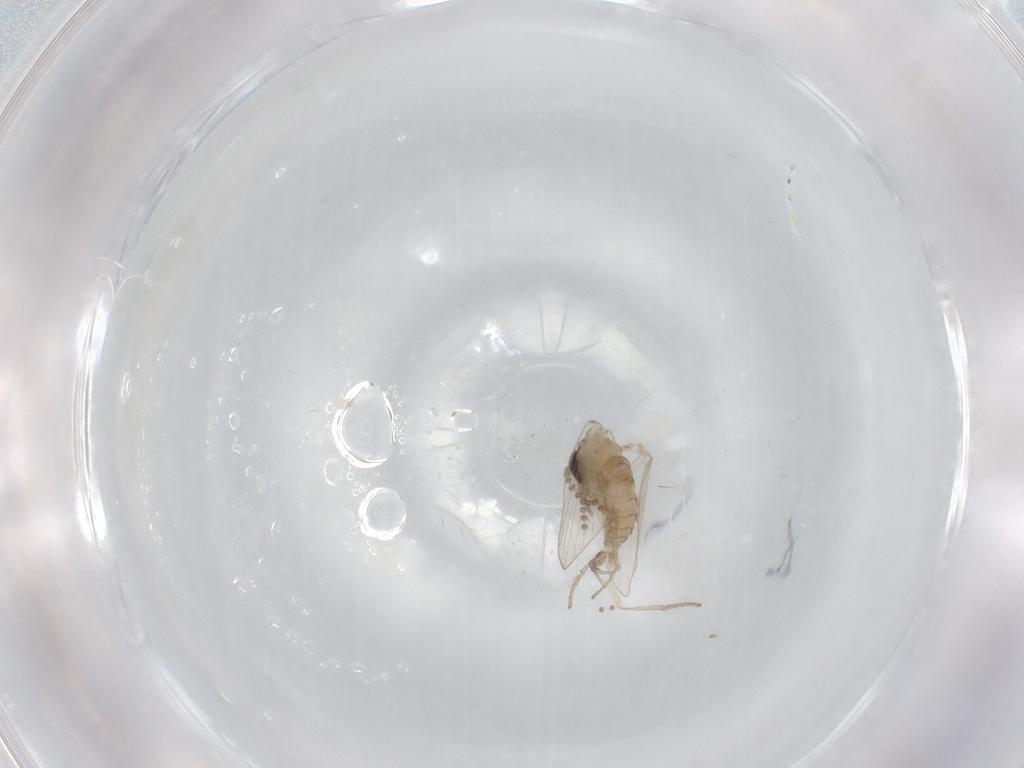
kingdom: Animalia
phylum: Arthropoda
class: Insecta
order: Diptera
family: Psychodidae
